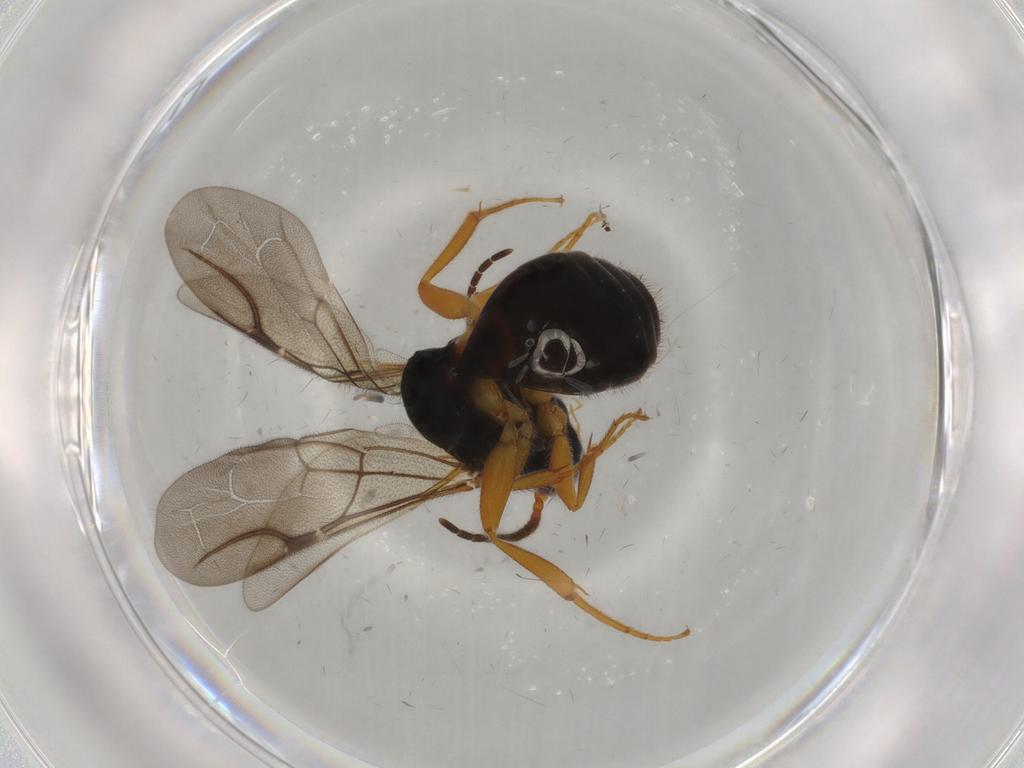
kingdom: Animalia
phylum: Arthropoda
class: Insecta
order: Hymenoptera
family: Bethylidae
